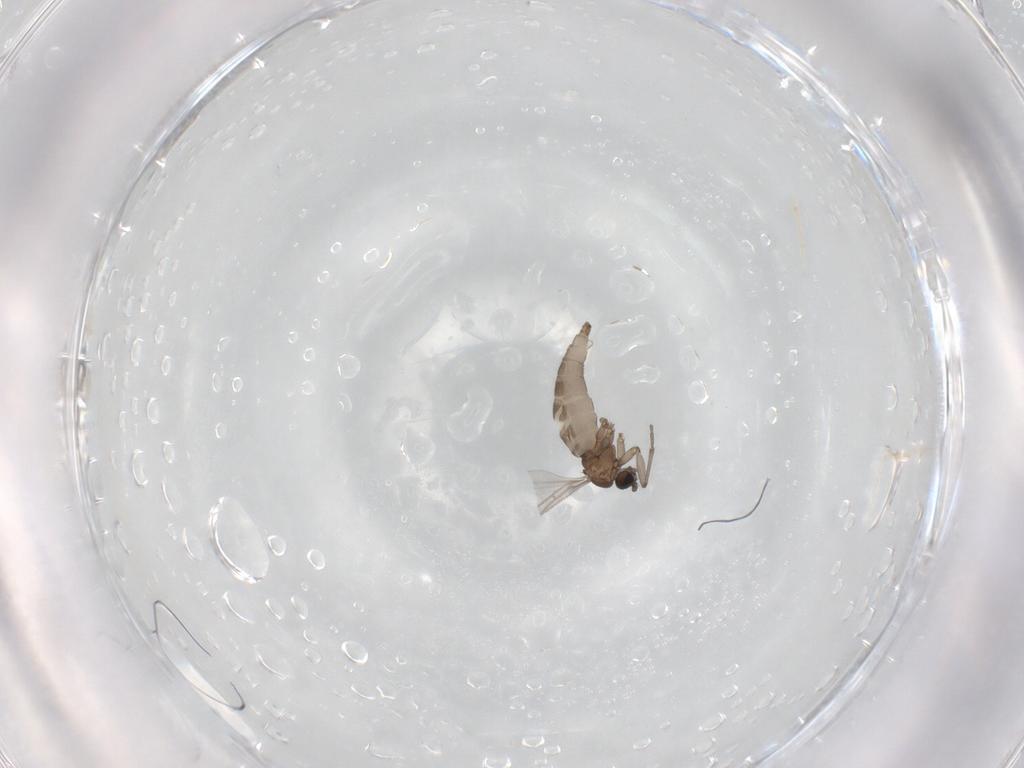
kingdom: Animalia
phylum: Arthropoda
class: Insecta
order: Diptera
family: Sciaridae
